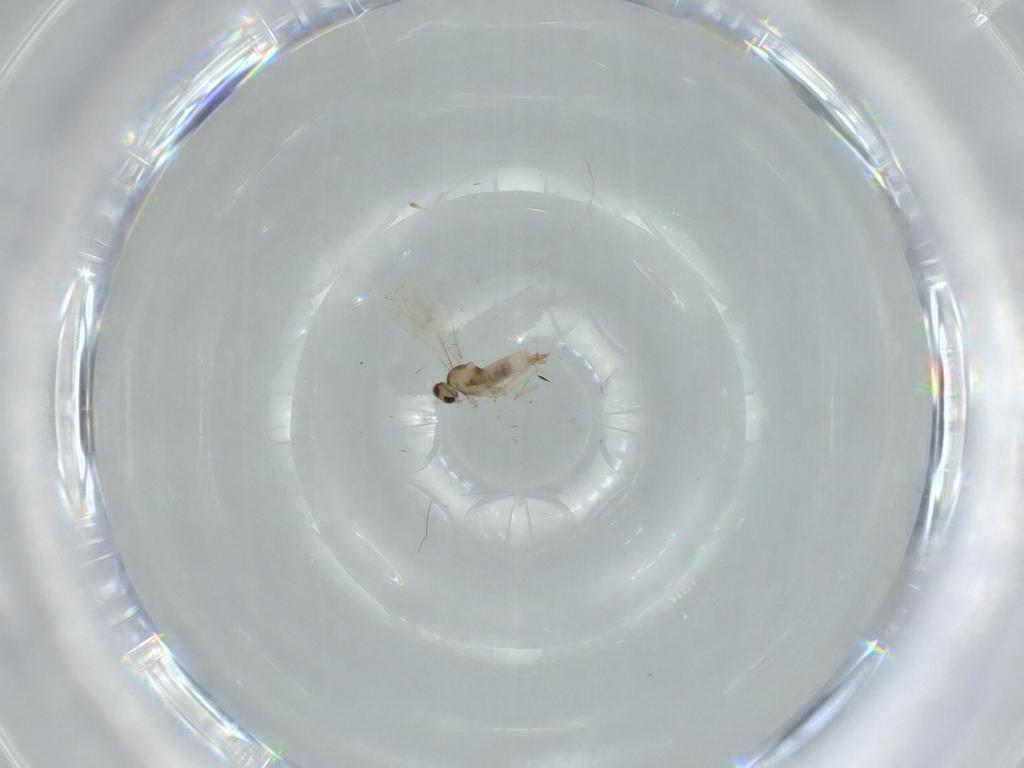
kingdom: Animalia
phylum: Arthropoda
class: Insecta
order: Diptera
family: Cecidomyiidae
